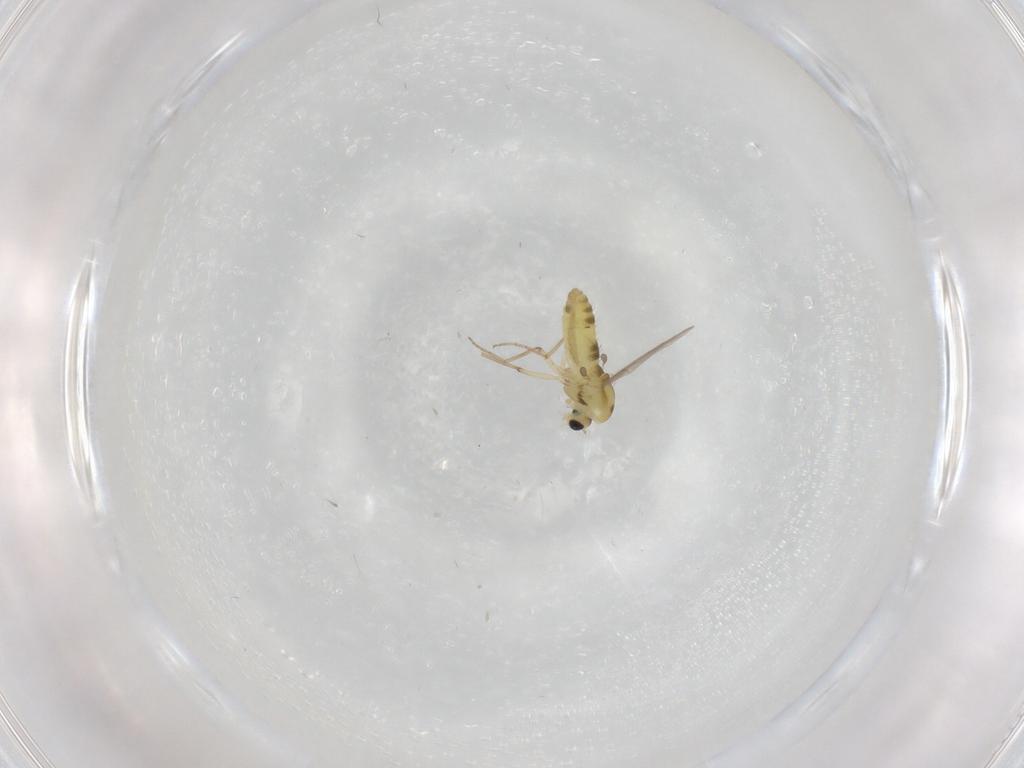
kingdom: Animalia
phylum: Arthropoda
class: Insecta
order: Diptera
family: Chironomidae
